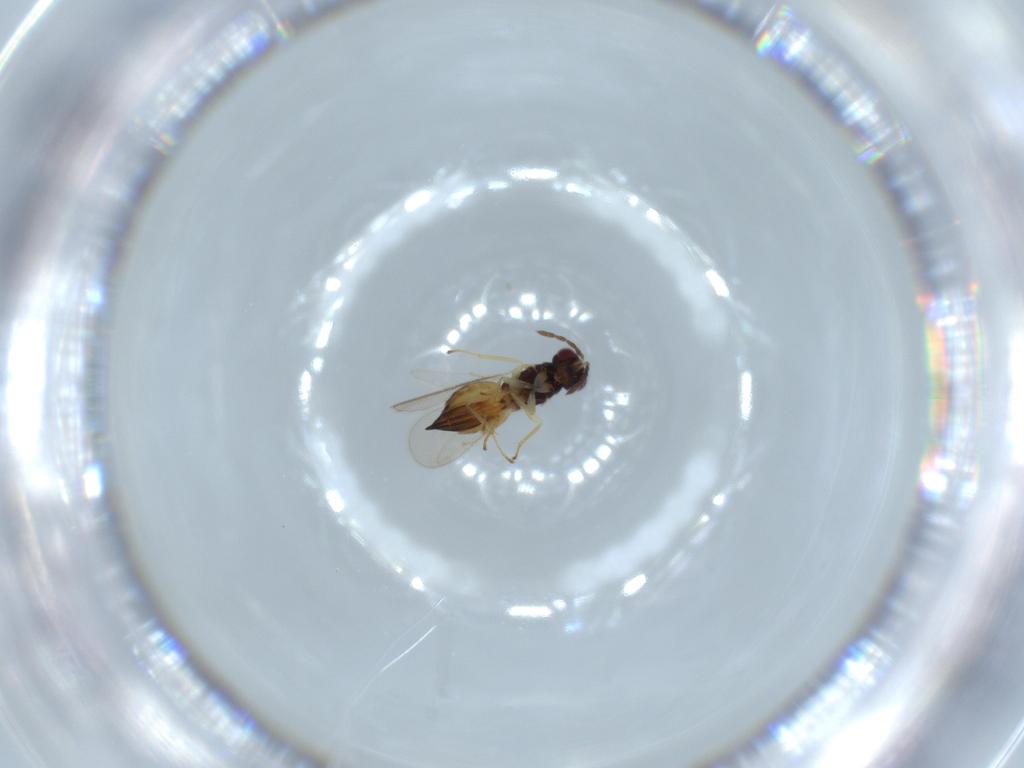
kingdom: Animalia
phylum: Arthropoda
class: Insecta
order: Hymenoptera
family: Eulophidae
